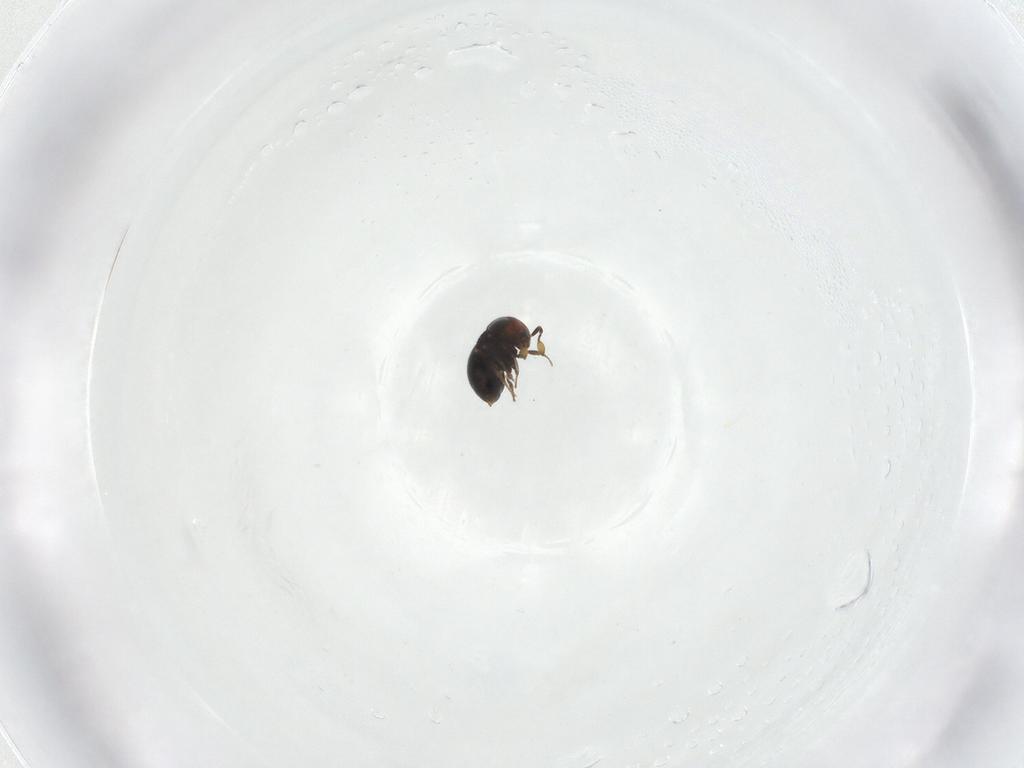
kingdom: Animalia
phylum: Arthropoda
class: Insecta
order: Hymenoptera
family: Scelionidae
